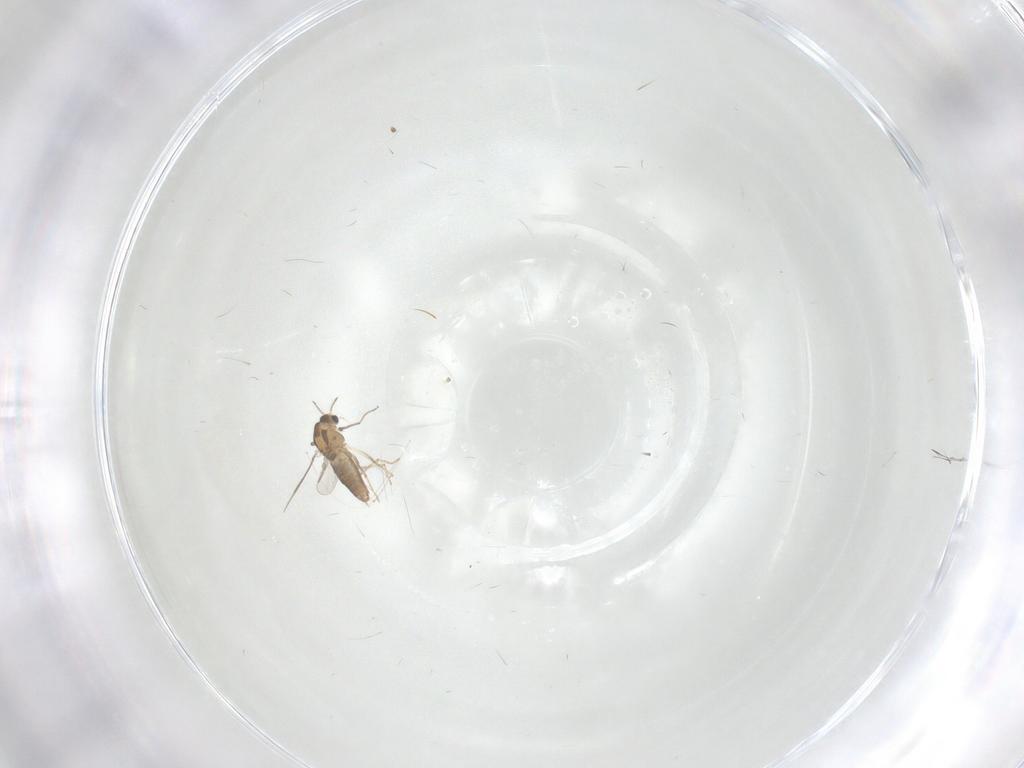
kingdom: Animalia
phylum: Arthropoda
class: Insecta
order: Diptera
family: Chironomidae
